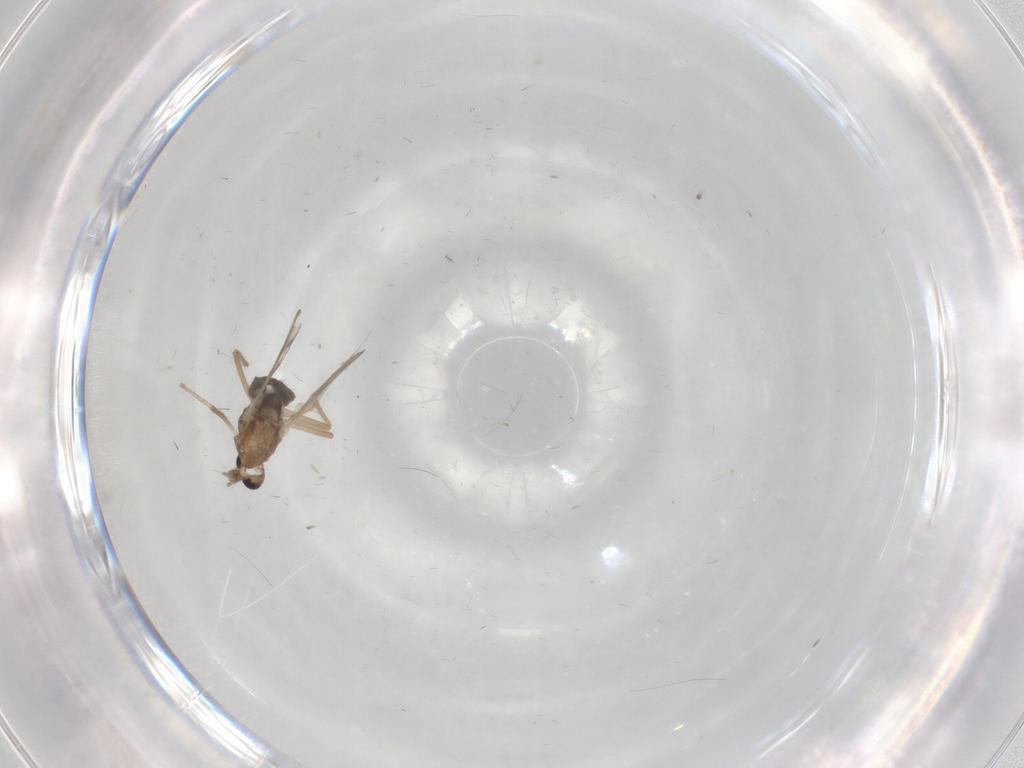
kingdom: Animalia
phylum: Arthropoda
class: Insecta
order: Diptera
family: Chironomidae
